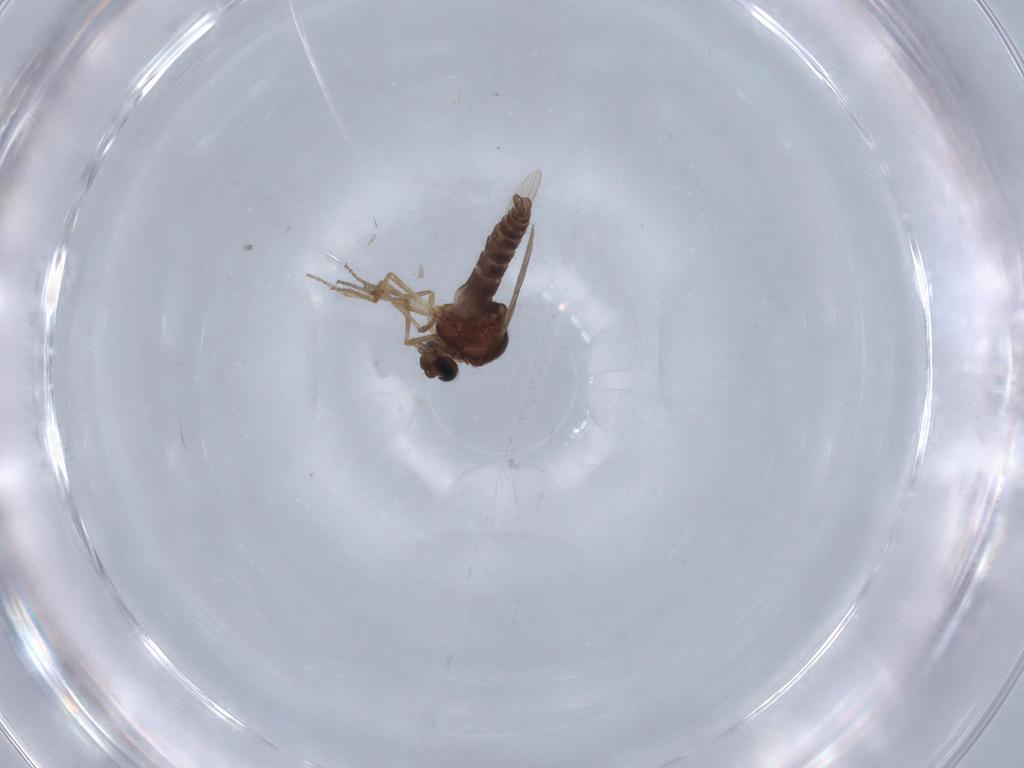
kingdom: Animalia
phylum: Arthropoda
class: Insecta
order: Diptera
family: Ceratopogonidae
